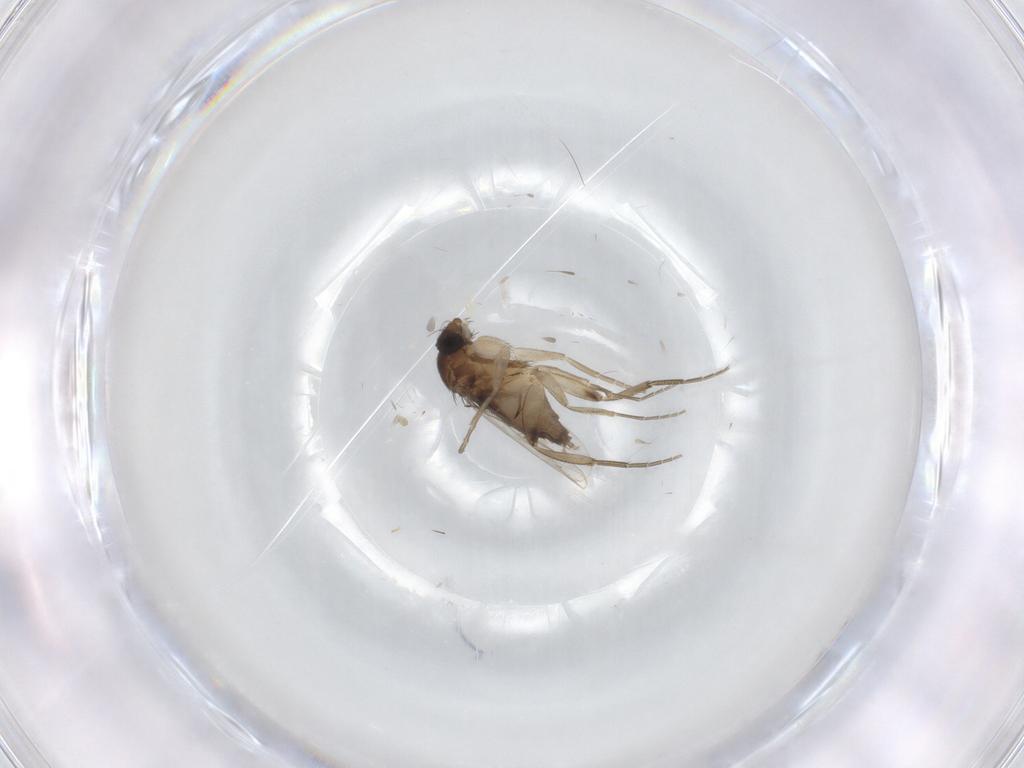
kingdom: Animalia
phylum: Arthropoda
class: Insecta
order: Diptera
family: Phoridae
